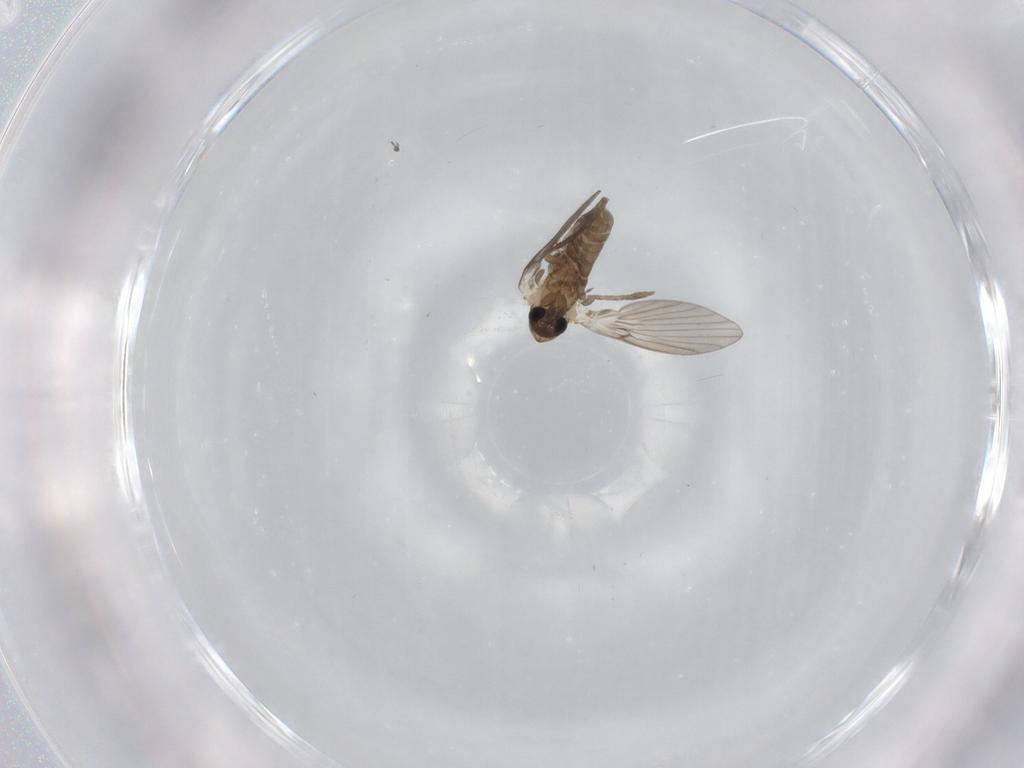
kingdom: Animalia
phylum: Arthropoda
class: Insecta
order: Diptera
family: Psychodidae
